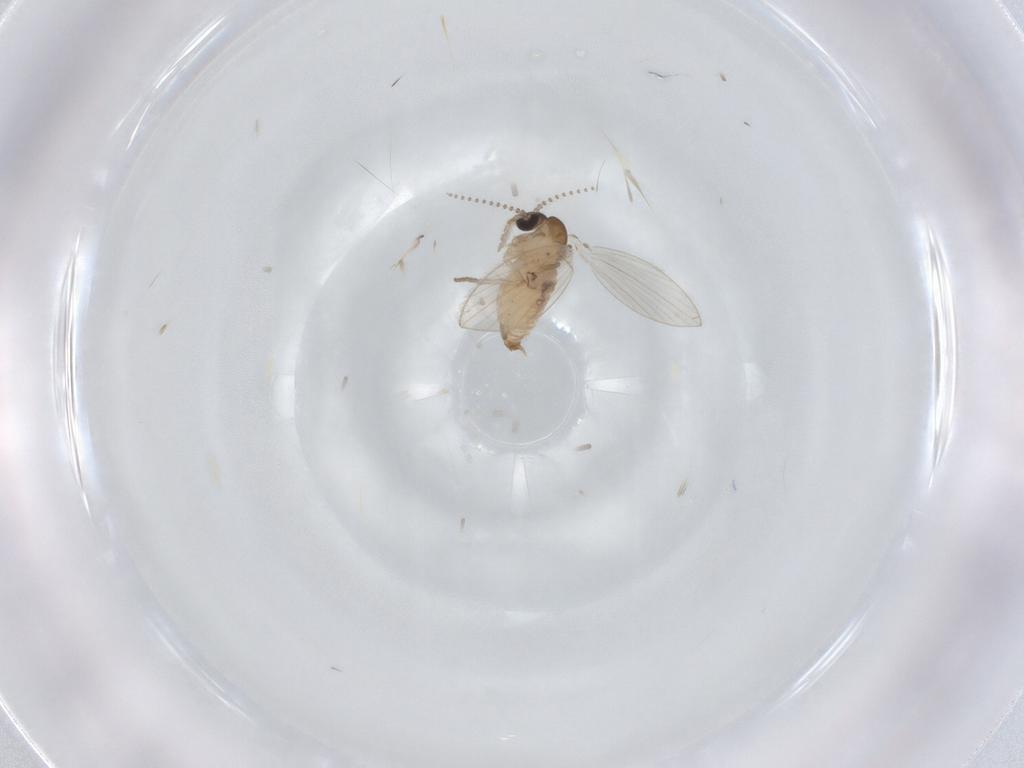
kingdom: Animalia
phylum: Arthropoda
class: Insecta
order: Diptera
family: Psychodidae
